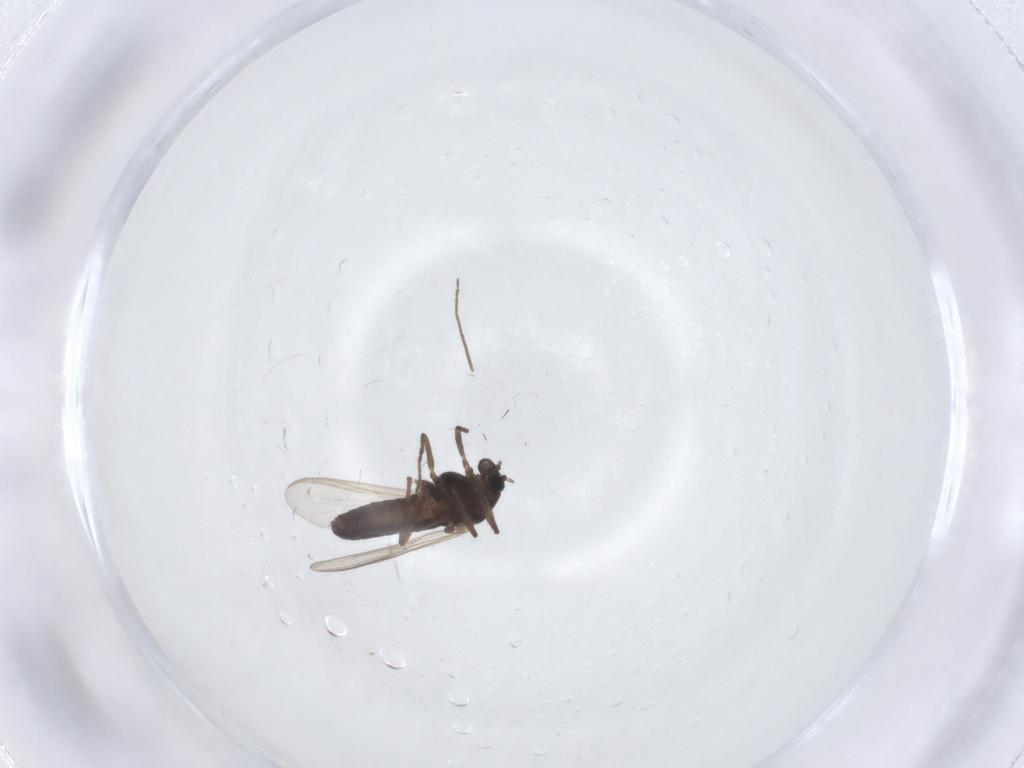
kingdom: Animalia
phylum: Arthropoda
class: Insecta
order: Diptera
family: Chironomidae
